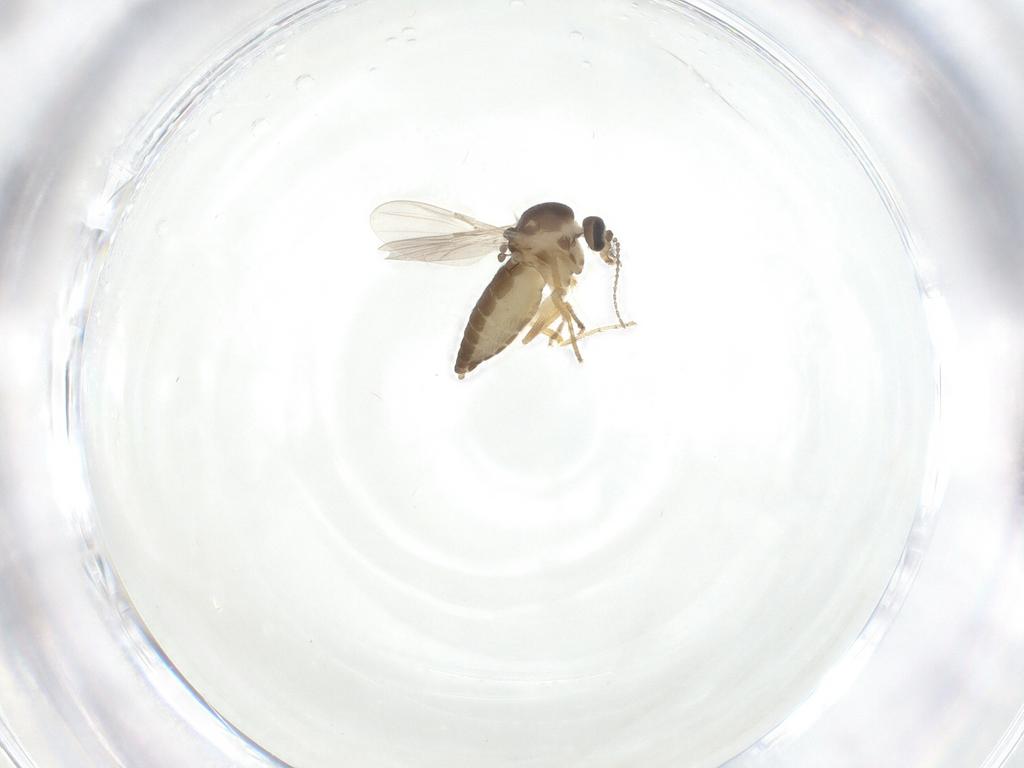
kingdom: Animalia
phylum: Arthropoda
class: Insecta
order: Diptera
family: Ceratopogonidae
